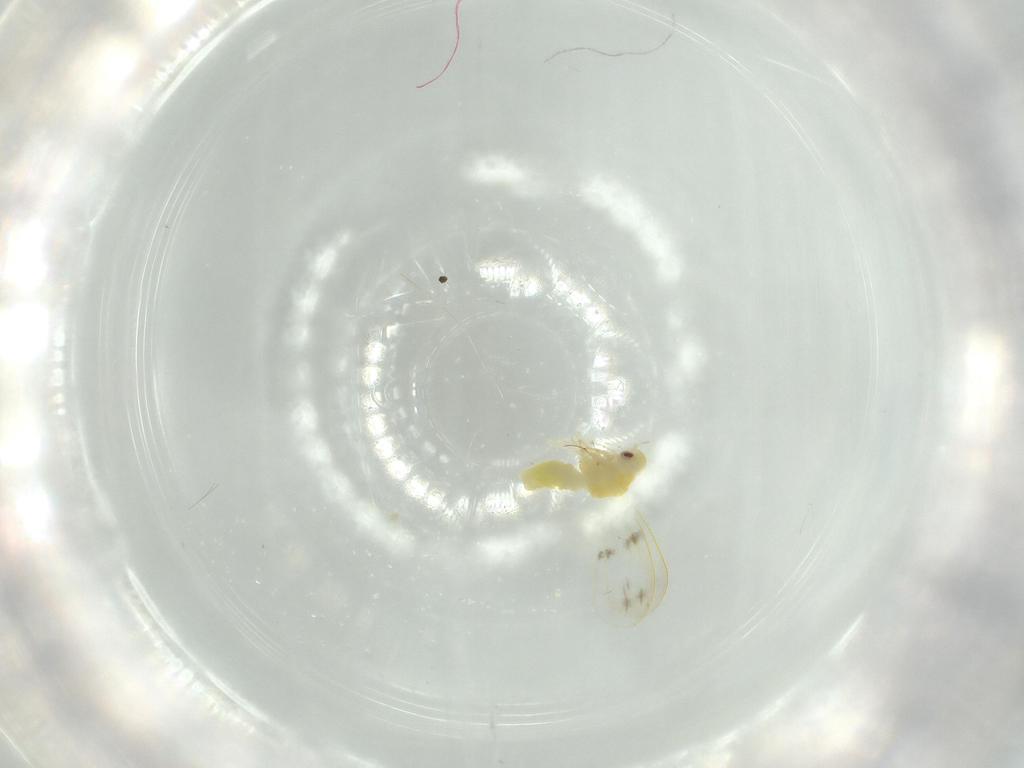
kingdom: Animalia
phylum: Arthropoda
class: Insecta
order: Hemiptera
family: Aleyrodidae
